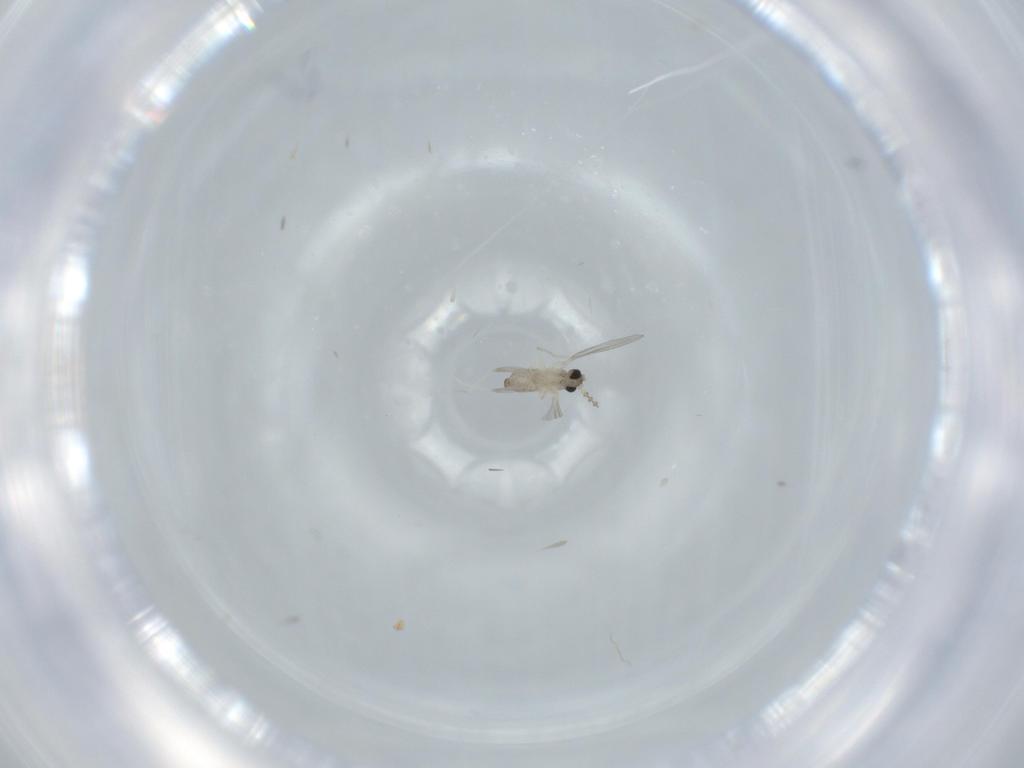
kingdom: Animalia
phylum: Arthropoda
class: Insecta
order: Diptera
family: Cecidomyiidae
